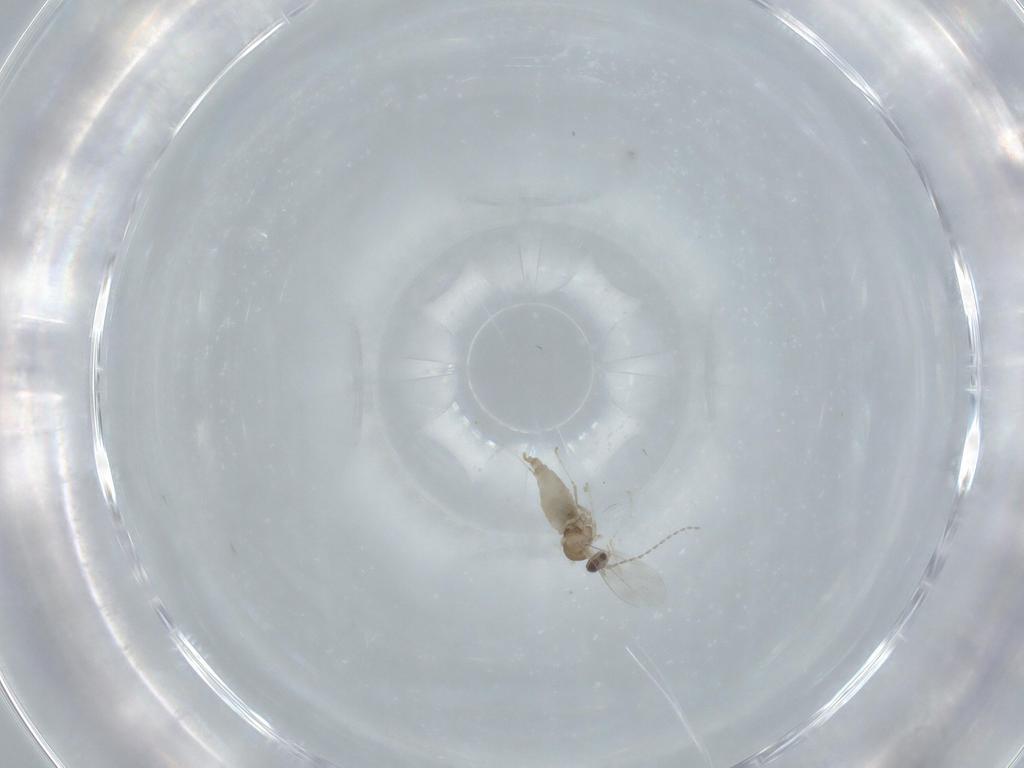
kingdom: Animalia
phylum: Arthropoda
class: Insecta
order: Diptera
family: Cecidomyiidae
